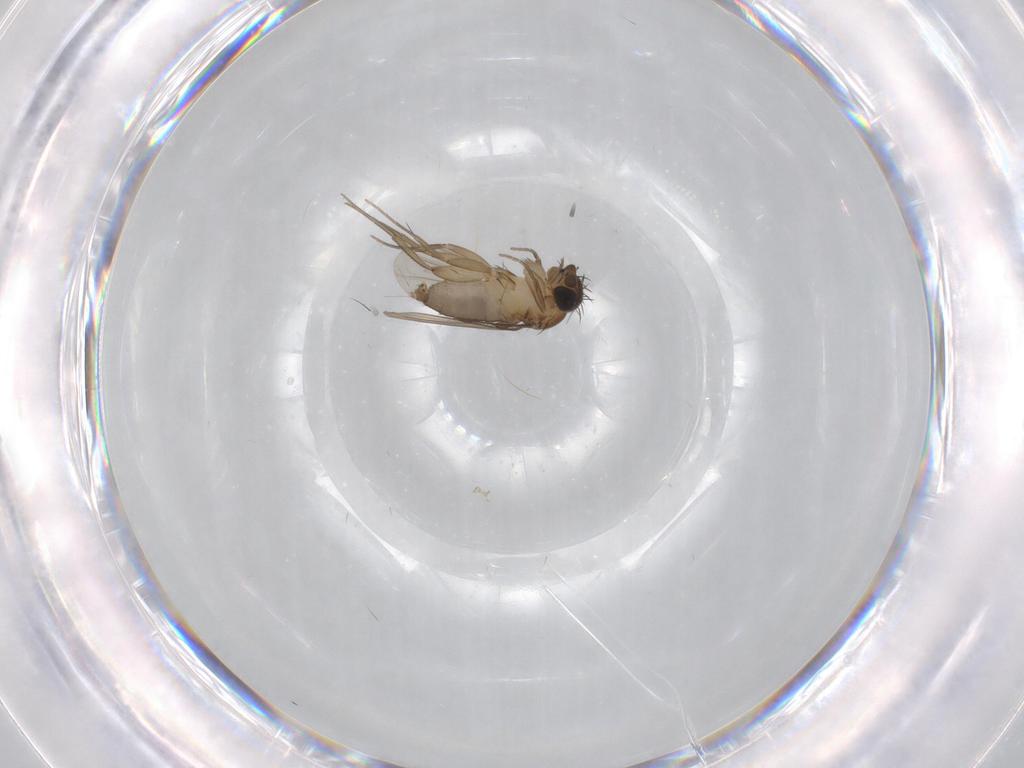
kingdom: Animalia
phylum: Arthropoda
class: Insecta
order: Diptera
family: Phoridae
